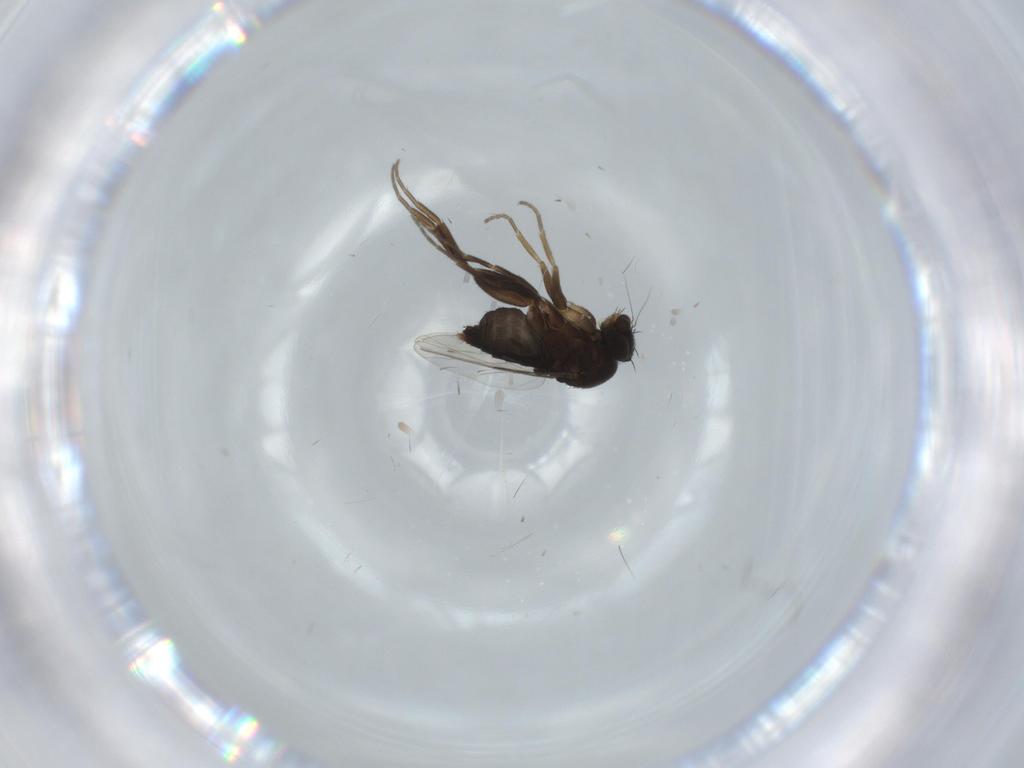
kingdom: Animalia
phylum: Arthropoda
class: Insecta
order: Diptera
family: Phoridae
